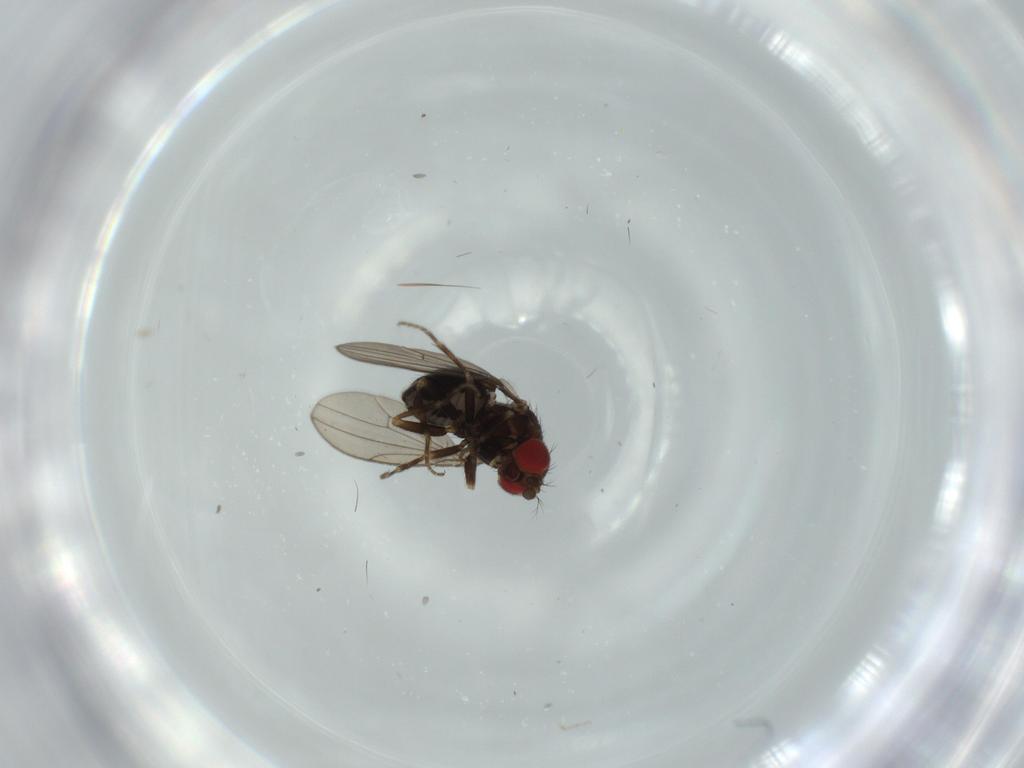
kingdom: Animalia
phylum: Arthropoda
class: Insecta
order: Diptera
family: Drosophilidae
